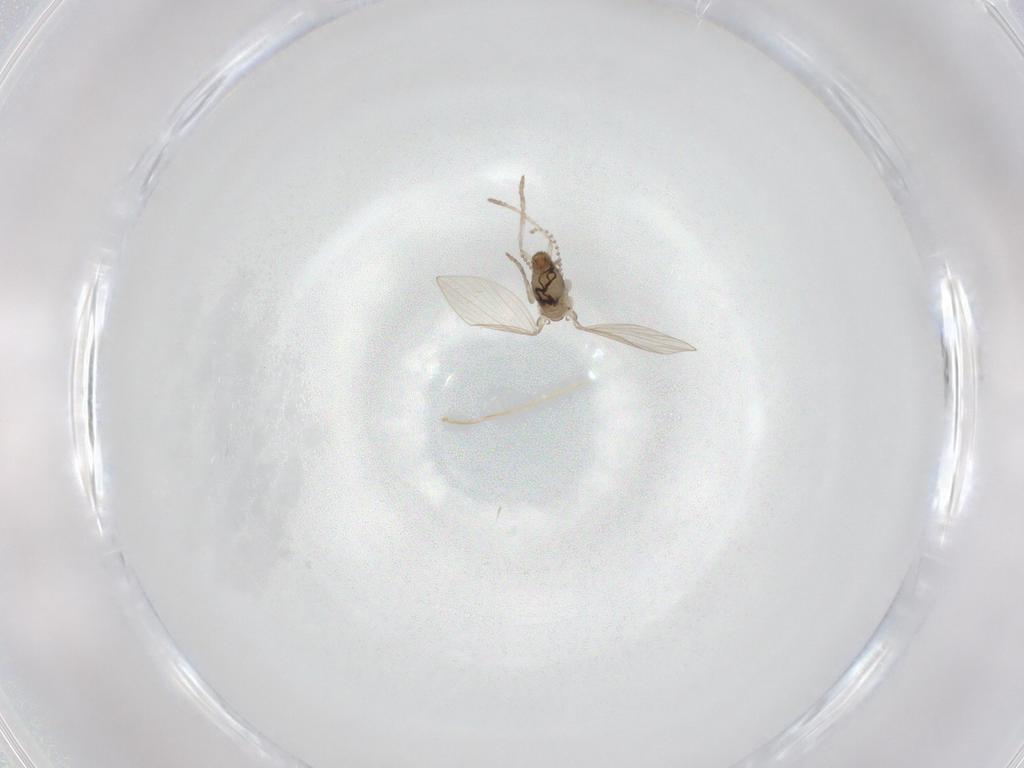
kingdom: Animalia
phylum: Arthropoda
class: Insecta
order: Diptera
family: Psychodidae
